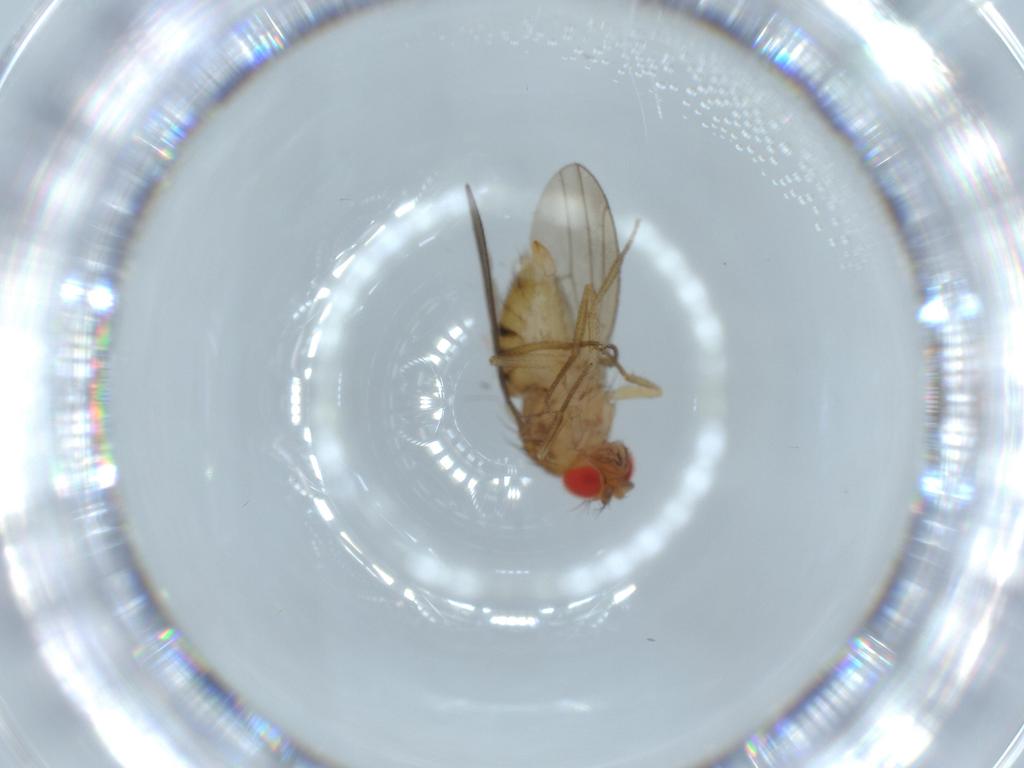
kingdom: Animalia
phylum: Arthropoda
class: Insecta
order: Diptera
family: Drosophilidae
